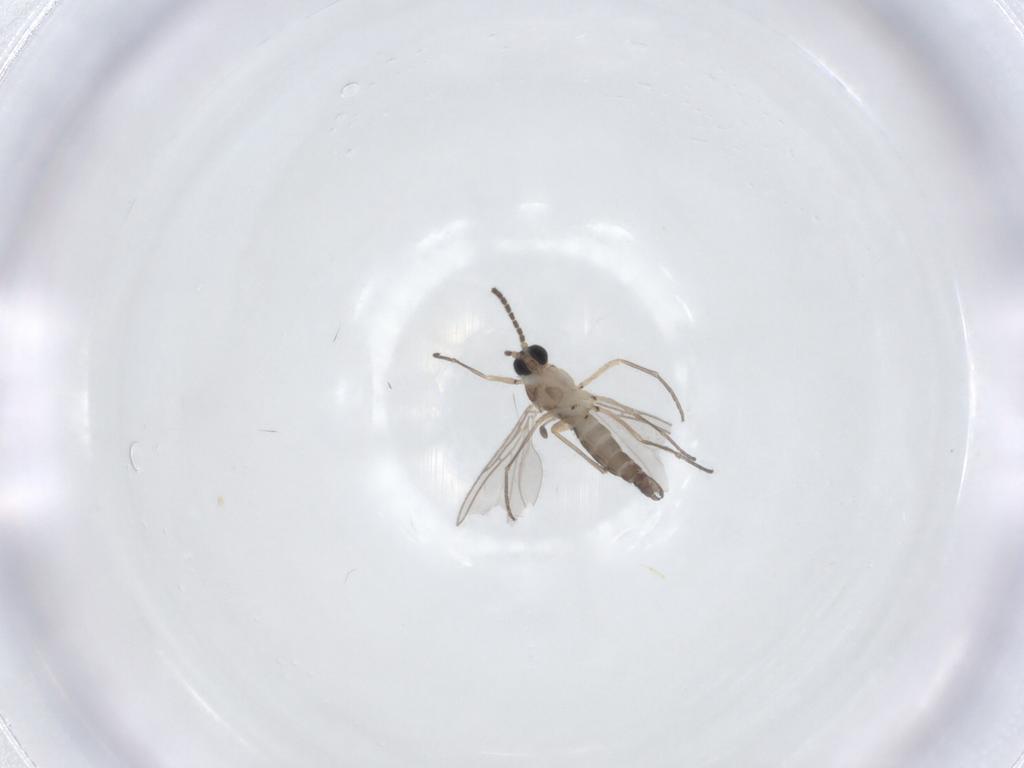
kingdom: Animalia
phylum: Arthropoda
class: Insecta
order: Diptera
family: Sciaridae
